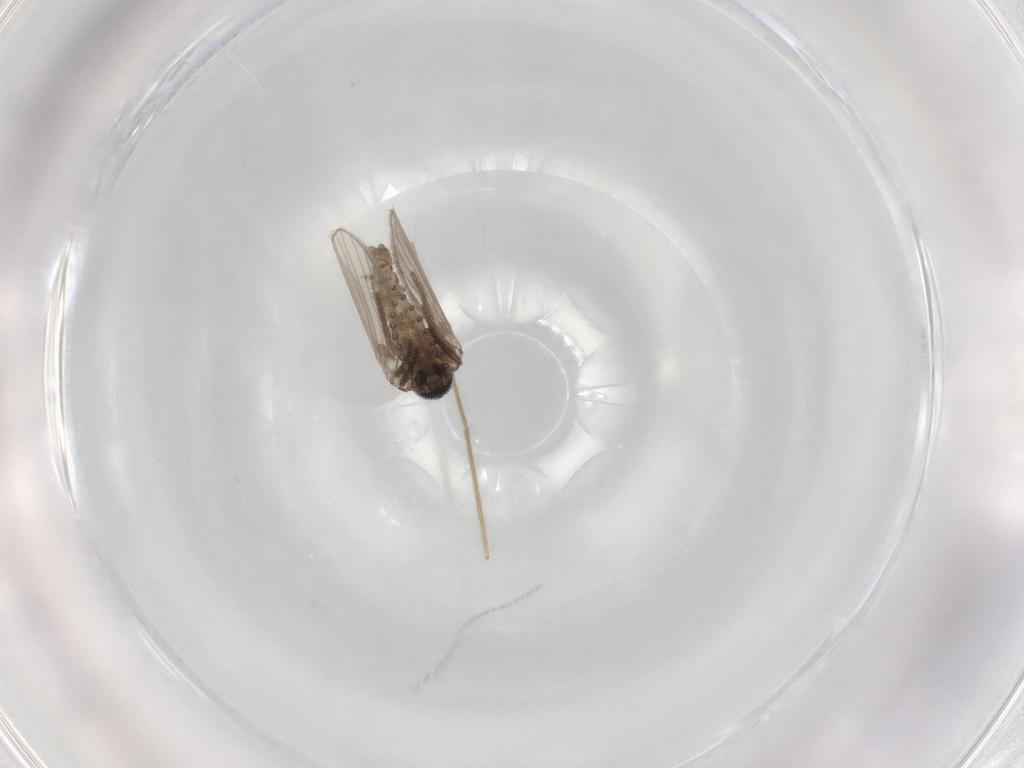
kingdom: Animalia
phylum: Arthropoda
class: Insecta
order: Diptera
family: Psychodidae
